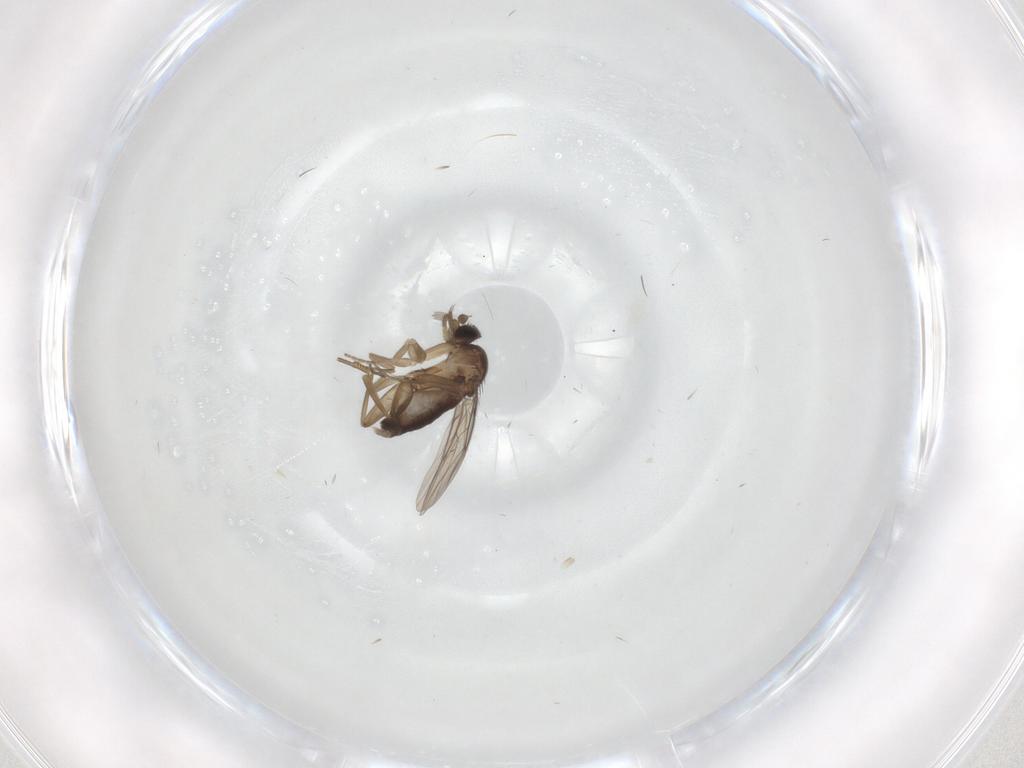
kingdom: Animalia
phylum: Arthropoda
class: Insecta
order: Diptera
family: Phoridae
